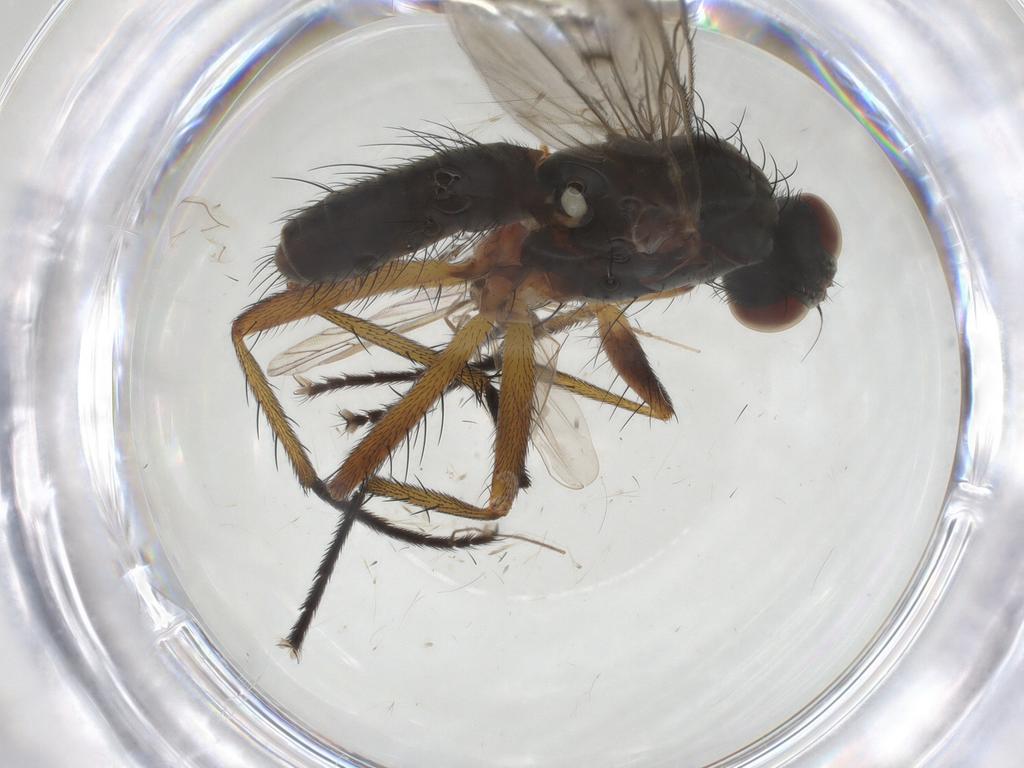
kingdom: Animalia
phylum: Arthropoda
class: Insecta
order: Diptera
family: Anthomyiidae
